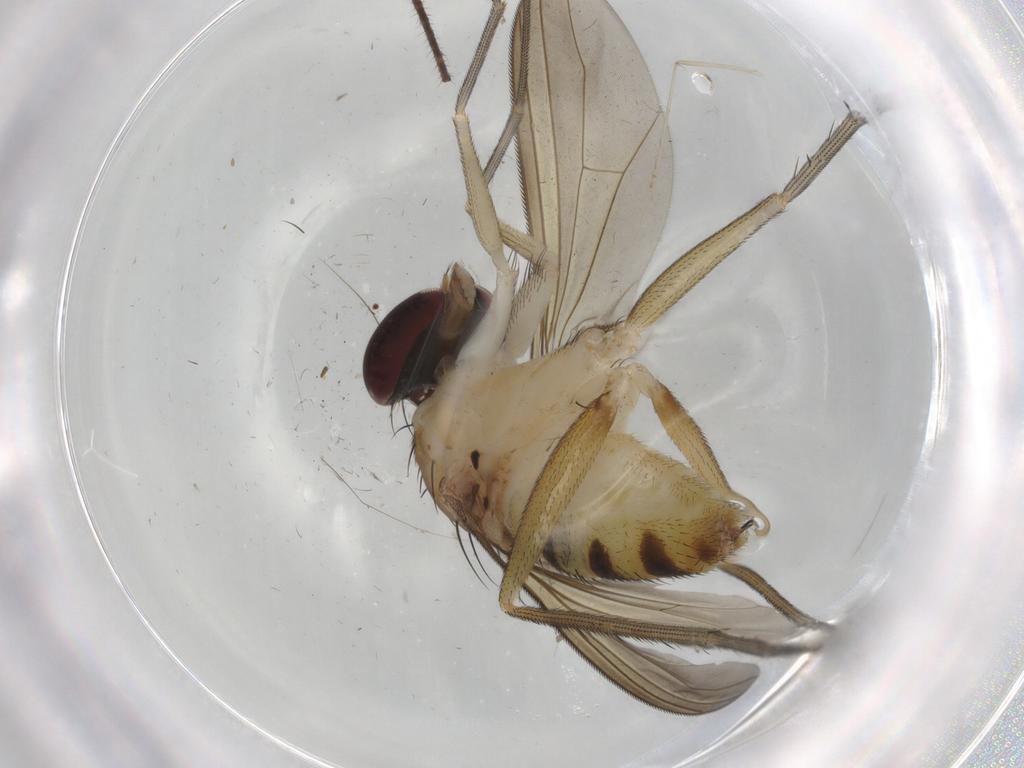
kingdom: Animalia
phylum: Arthropoda
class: Insecta
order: Diptera
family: Dolichopodidae
